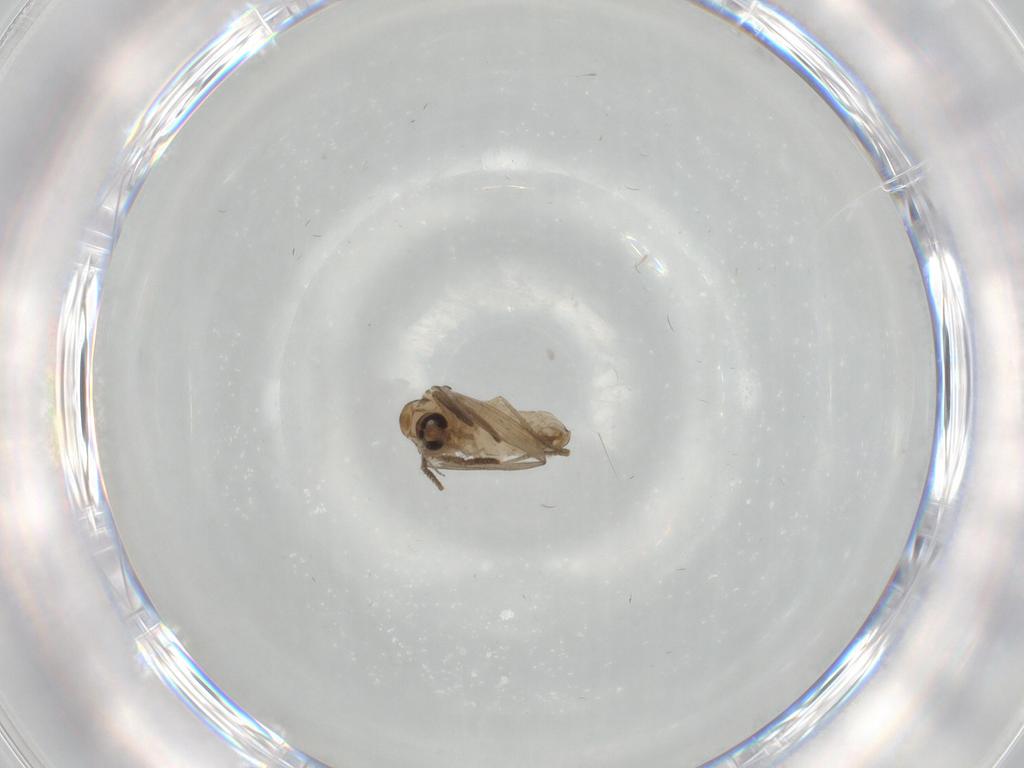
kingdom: Animalia
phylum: Arthropoda
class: Insecta
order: Diptera
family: Psychodidae
